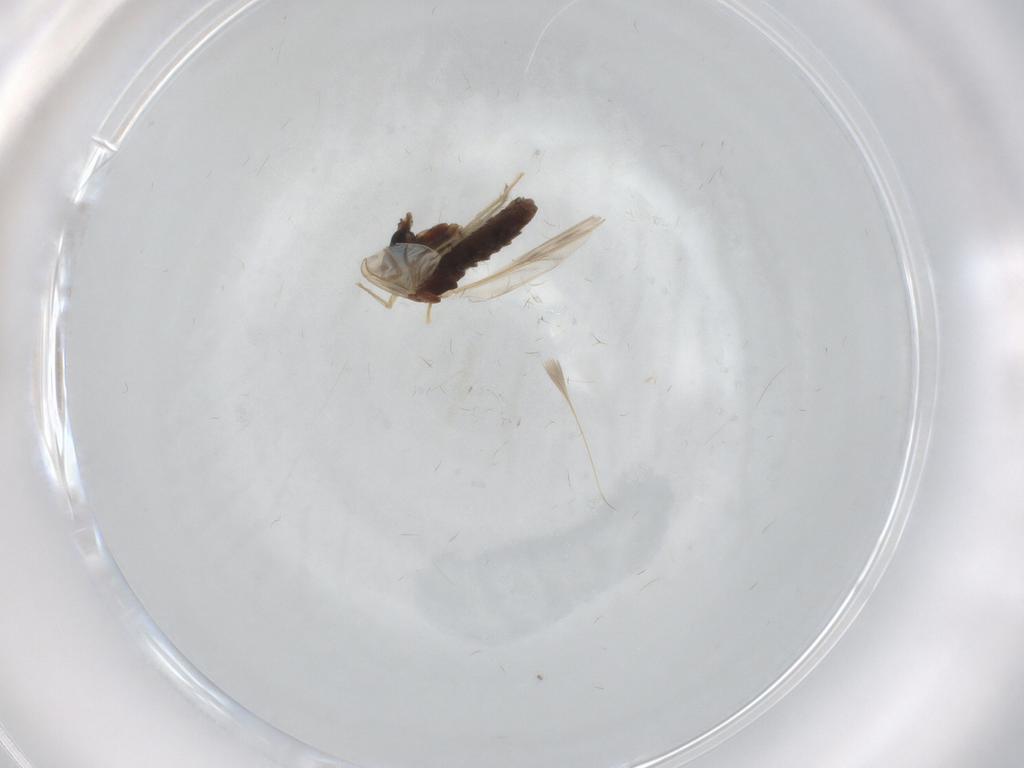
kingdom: Animalia
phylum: Arthropoda
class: Insecta
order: Diptera
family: Chironomidae
